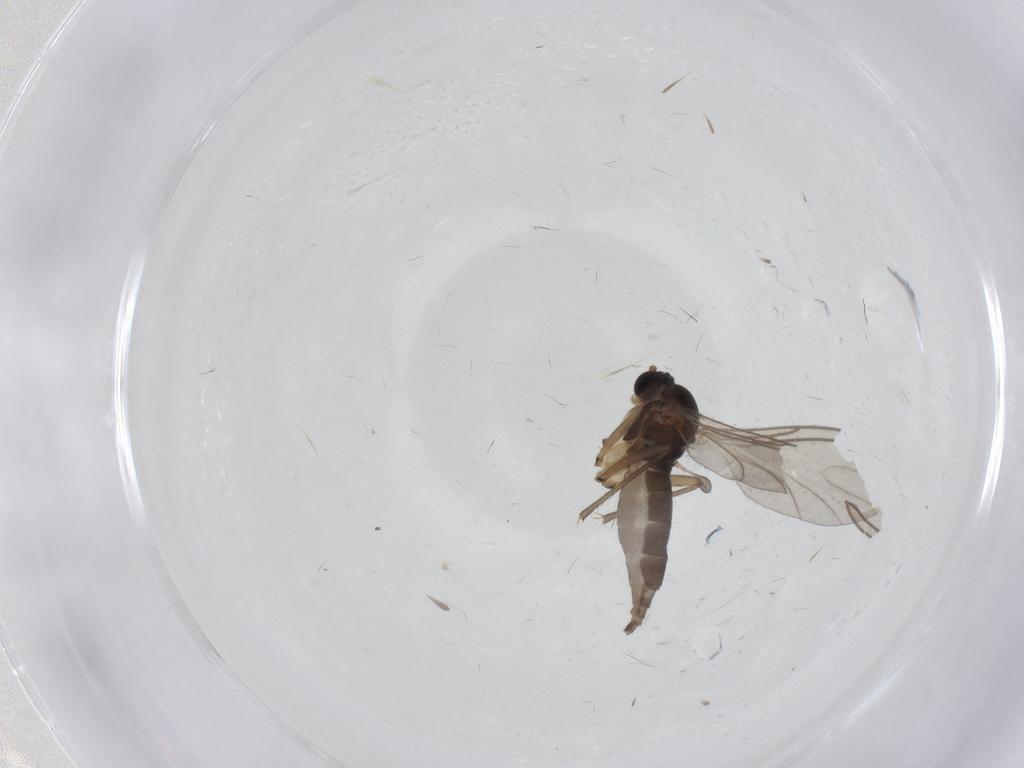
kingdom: Animalia
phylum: Arthropoda
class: Insecta
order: Diptera
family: Sciaridae
